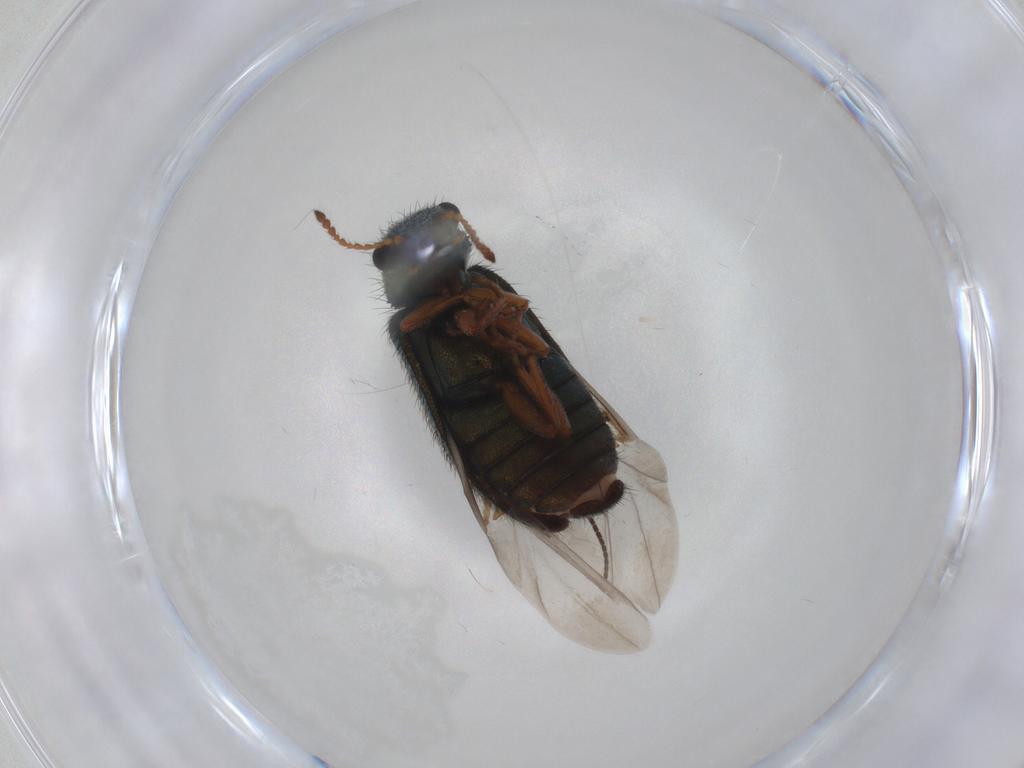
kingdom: Animalia
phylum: Arthropoda
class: Insecta
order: Coleoptera
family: Melyridae
